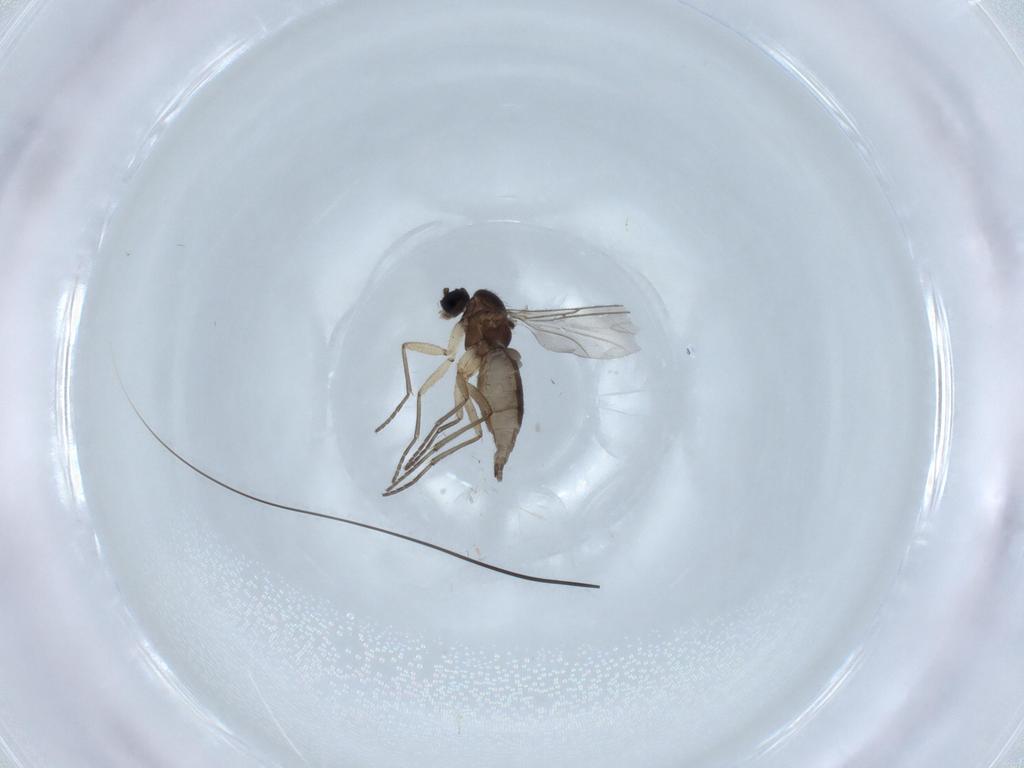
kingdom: Animalia
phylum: Arthropoda
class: Insecta
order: Diptera
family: Sciaridae
